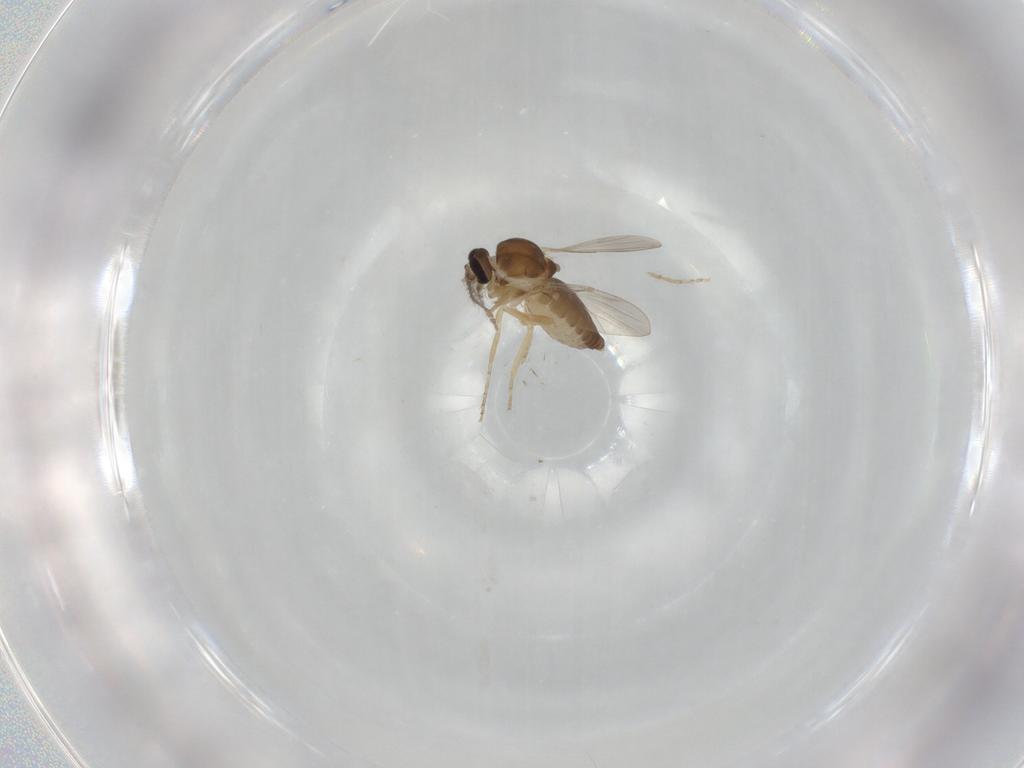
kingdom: Animalia
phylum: Arthropoda
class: Insecta
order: Diptera
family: Ceratopogonidae
